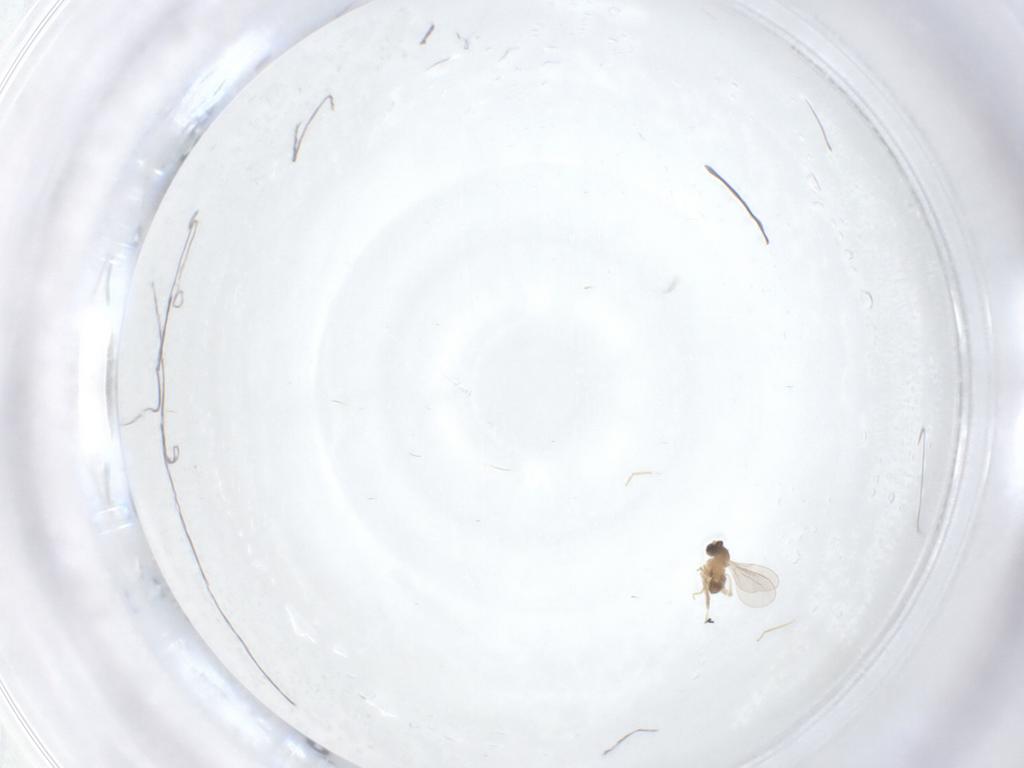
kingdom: Animalia
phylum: Arthropoda
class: Insecta
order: Diptera
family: Cecidomyiidae
